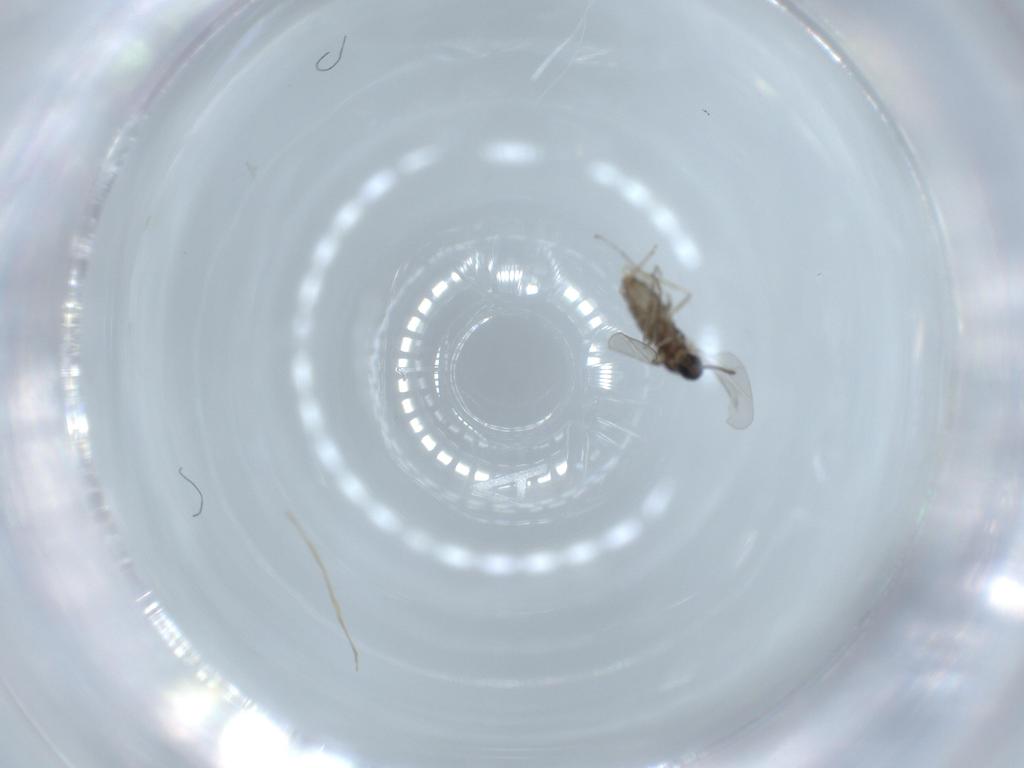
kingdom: Animalia
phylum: Arthropoda
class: Insecta
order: Diptera
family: Cecidomyiidae
